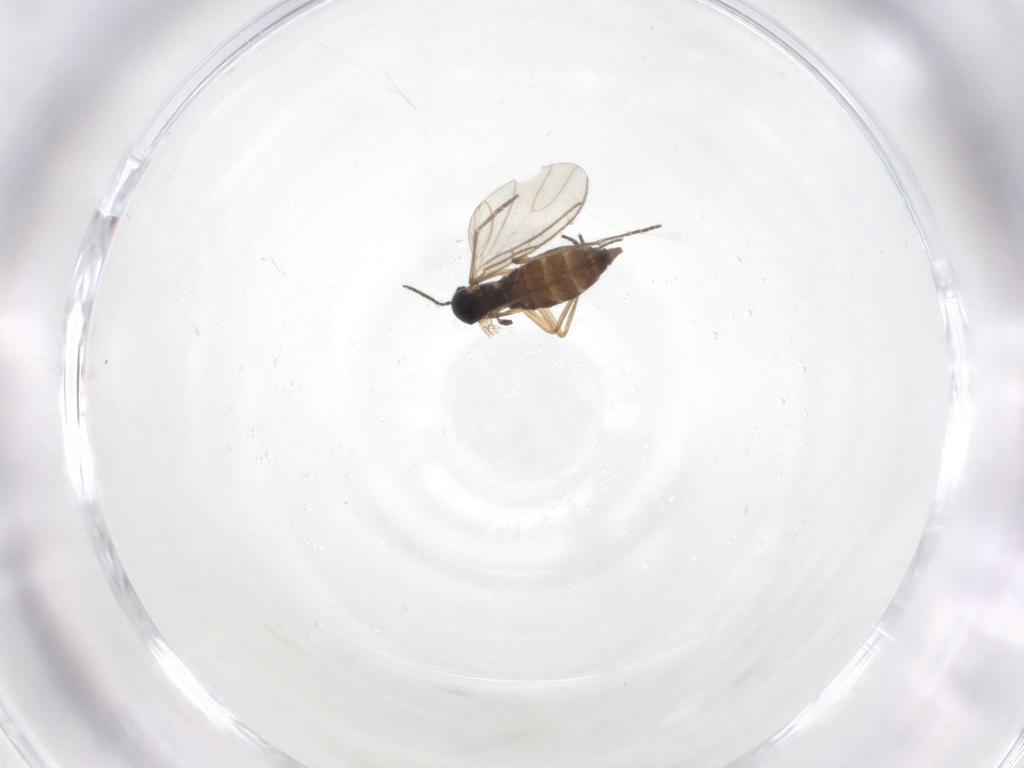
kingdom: Animalia
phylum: Arthropoda
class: Insecta
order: Diptera
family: Sciaridae
